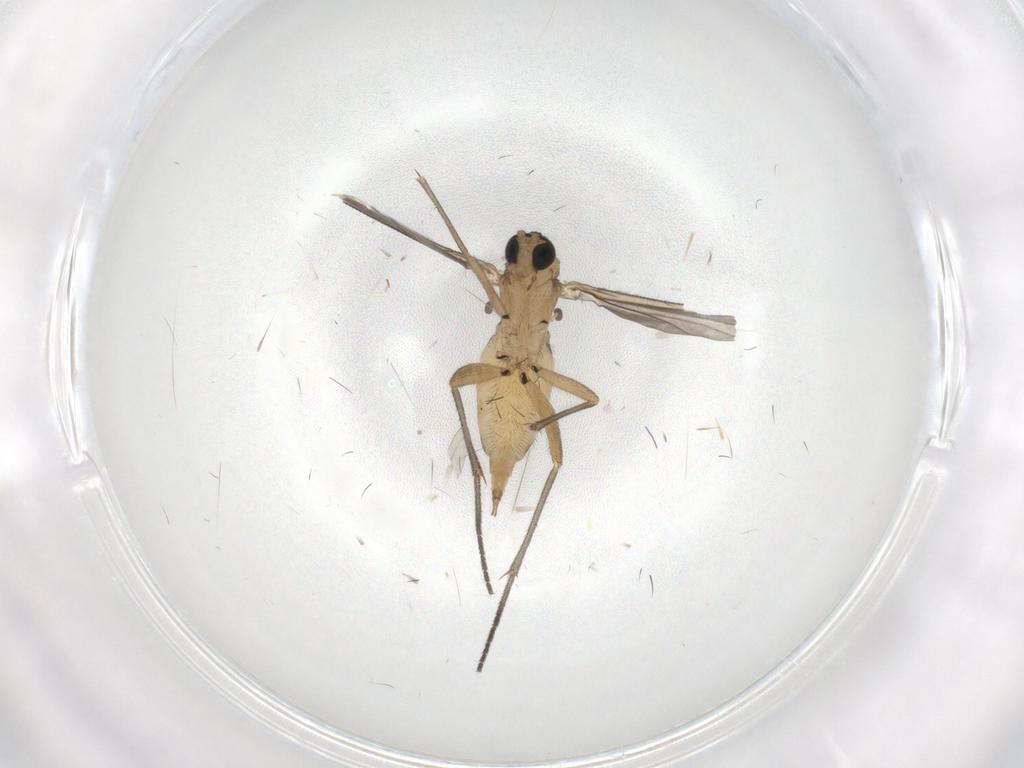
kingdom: Animalia
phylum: Arthropoda
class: Insecta
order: Diptera
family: Sciaridae
